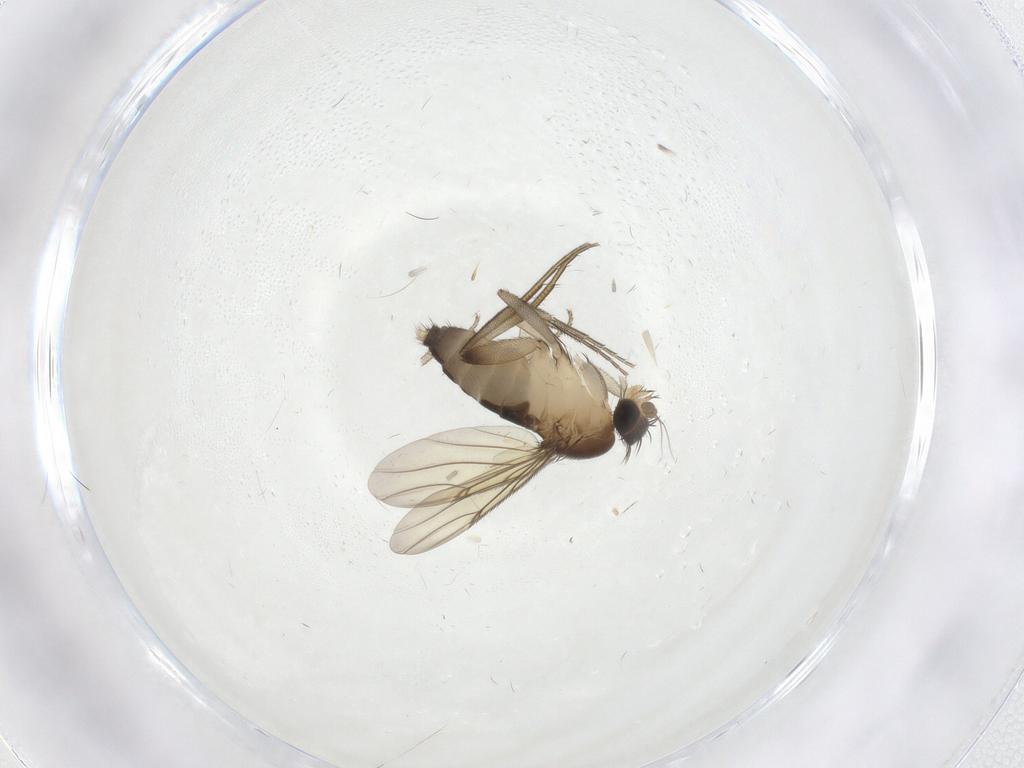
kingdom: Animalia
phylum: Arthropoda
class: Insecta
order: Diptera
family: Phoridae
